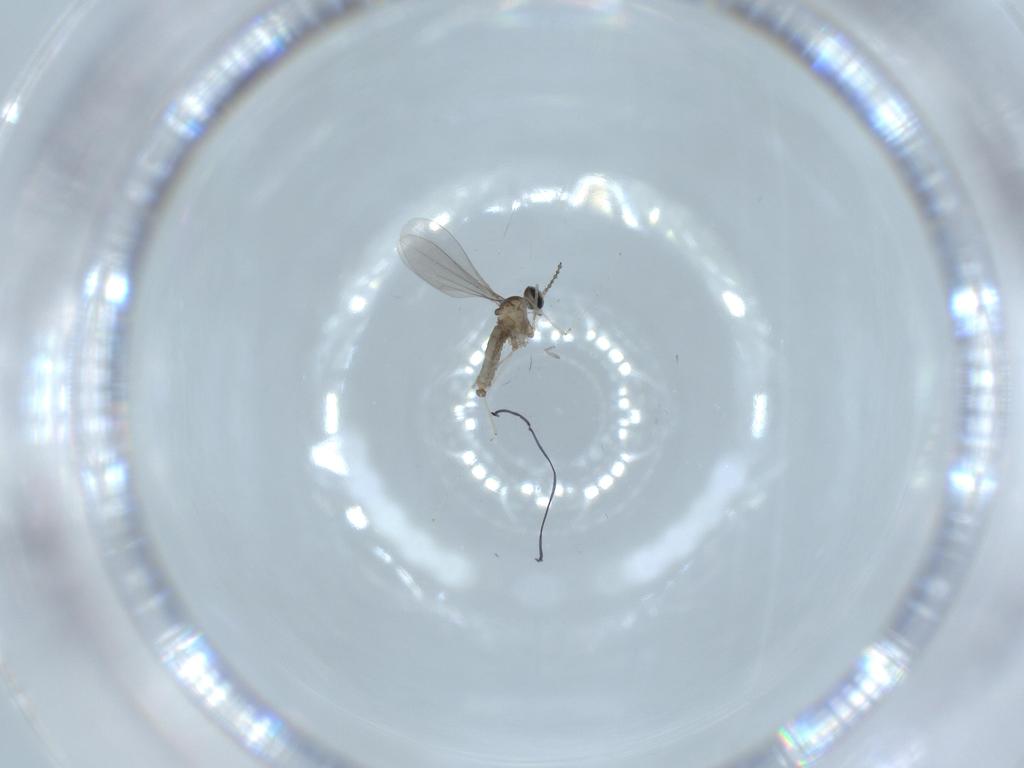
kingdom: Animalia
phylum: Arthropoda
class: Insecta
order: Diptera
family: Cecidomyiidae
